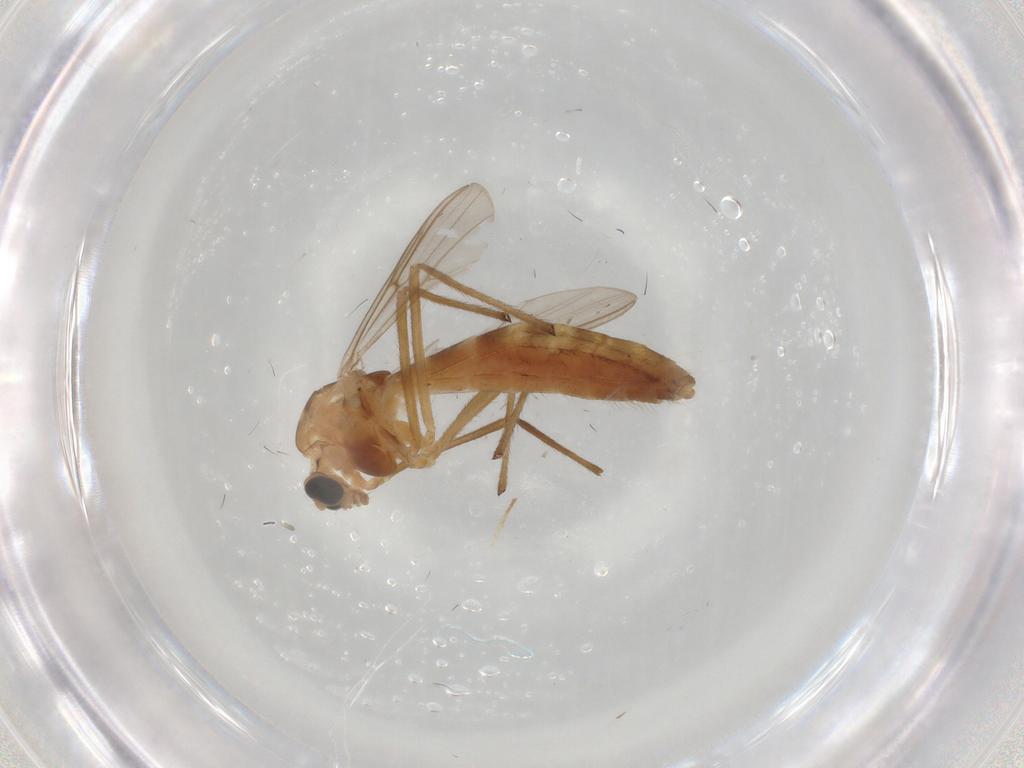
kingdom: Animalia
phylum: Arthropoda
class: Insecta
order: Diptera
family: Chironomidae
